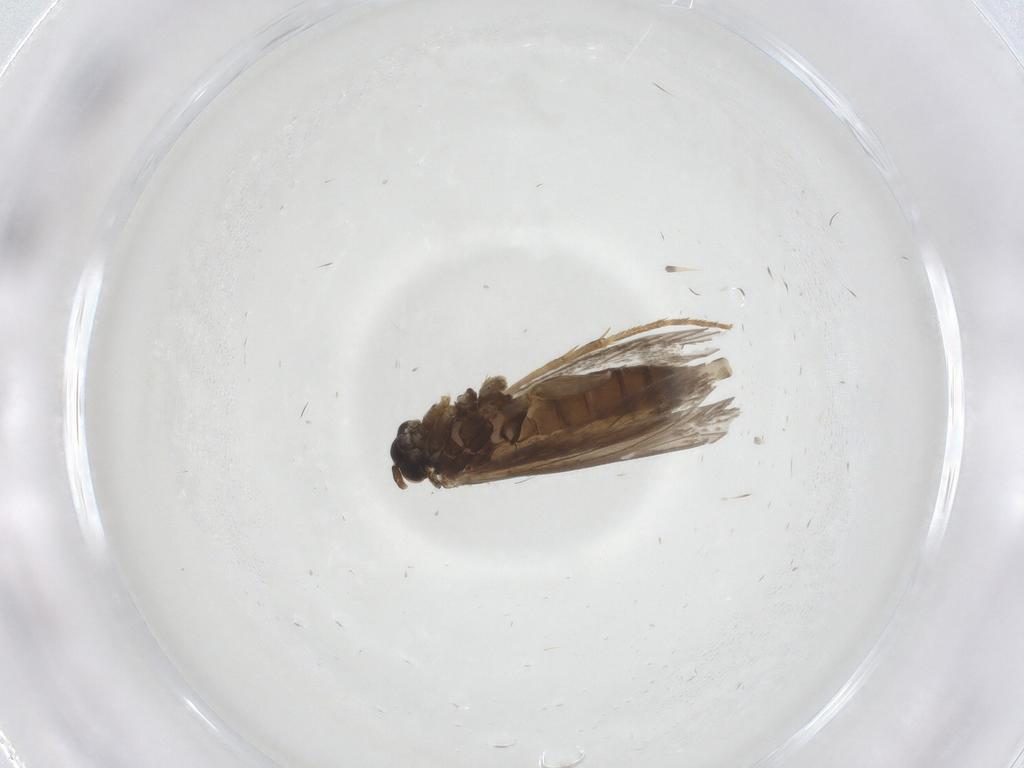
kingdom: Animalia
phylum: Arthropoda
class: Insecta
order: Lepidoptera
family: Micropterigidae
